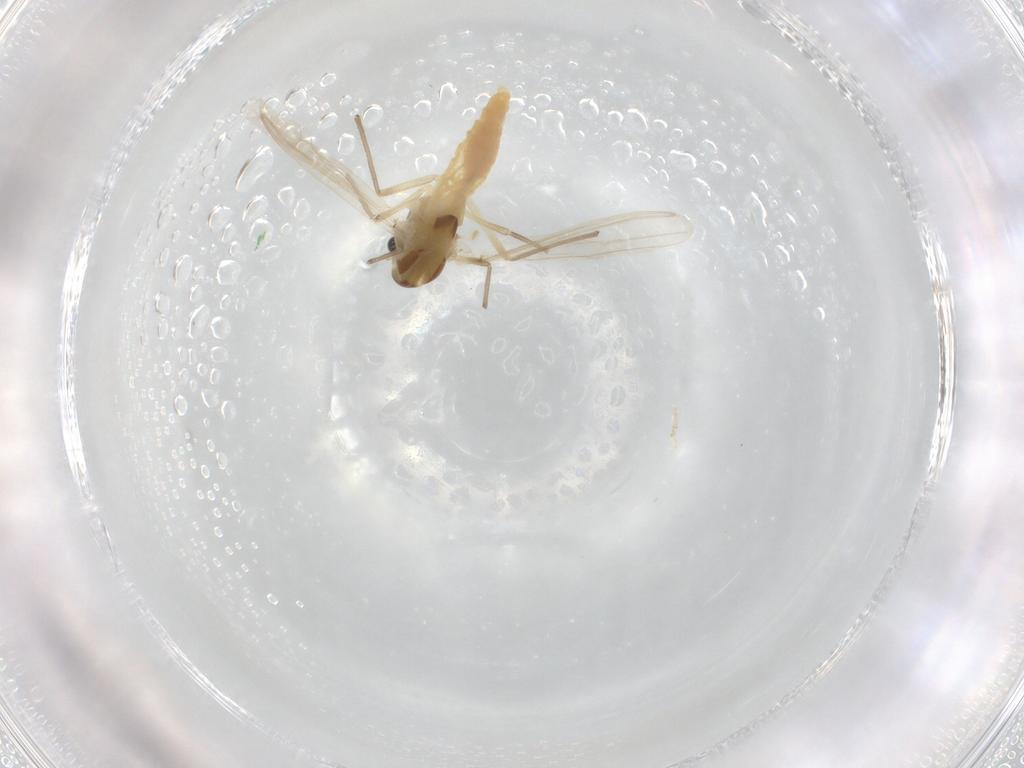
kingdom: Animalia
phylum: Arthropoda
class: Insecta
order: Diptera
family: Chironomidae
